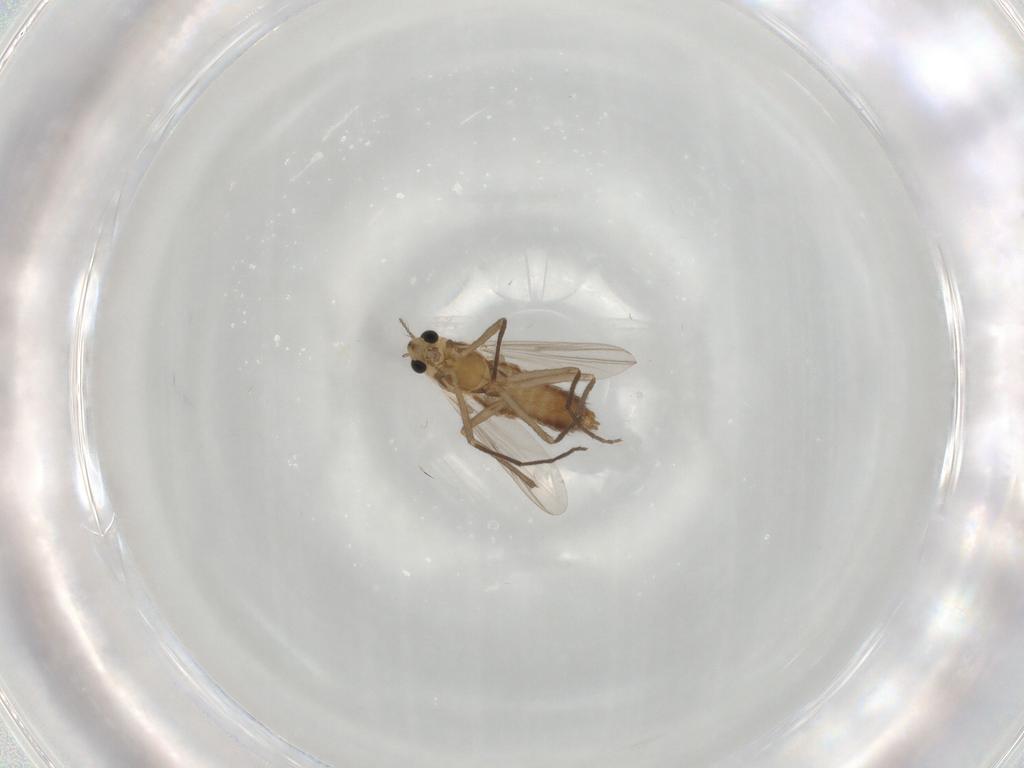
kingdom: Animalia
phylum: Arthropoda
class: Insecta
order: Diptera
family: Chironomidae
